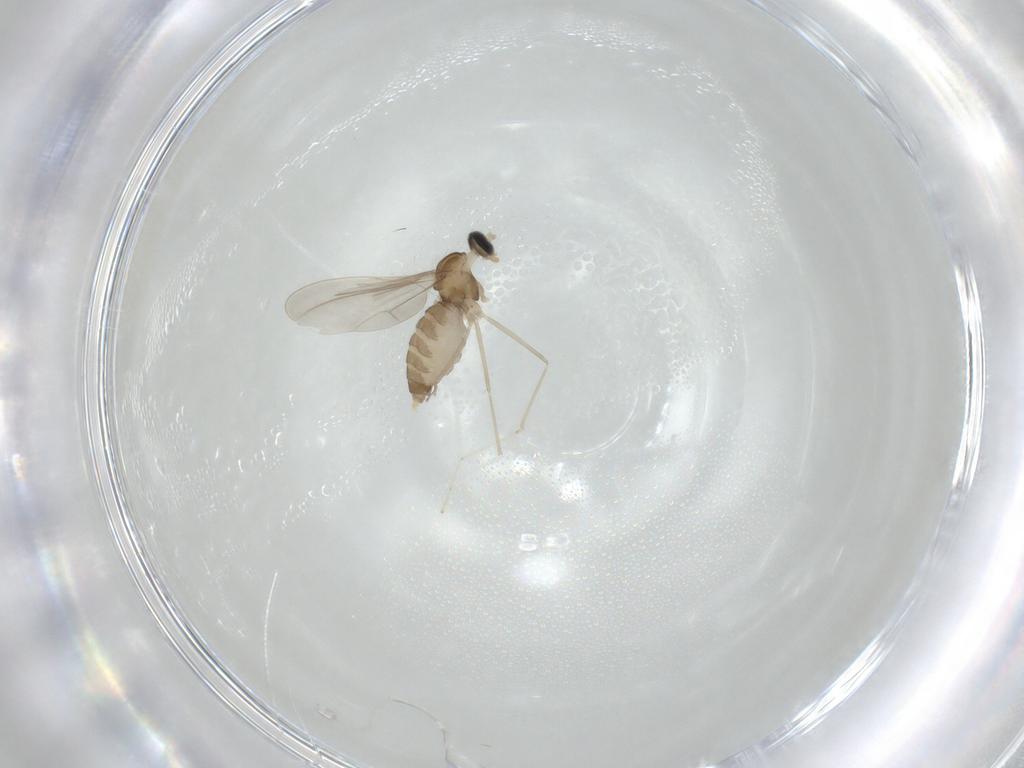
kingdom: Animalia
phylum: Arthropoda
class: Insecta
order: Diptera
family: Cecidomyiidae
